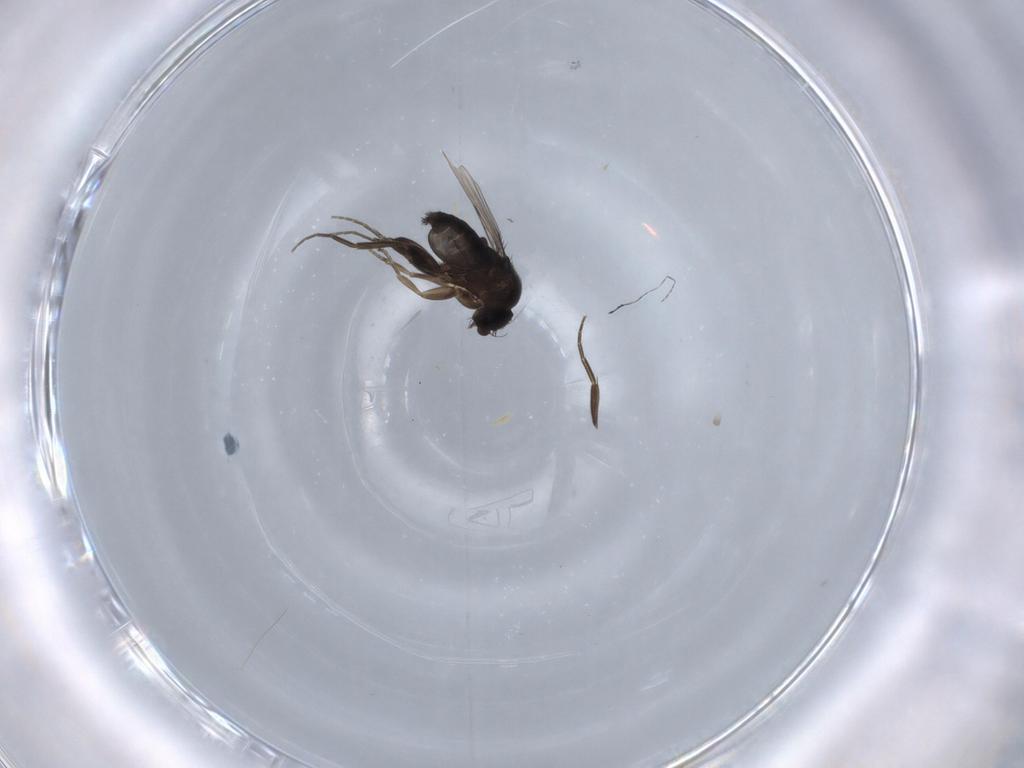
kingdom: Animalia
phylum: Arthropoda
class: Insecta
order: Diptera
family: Phoridae
